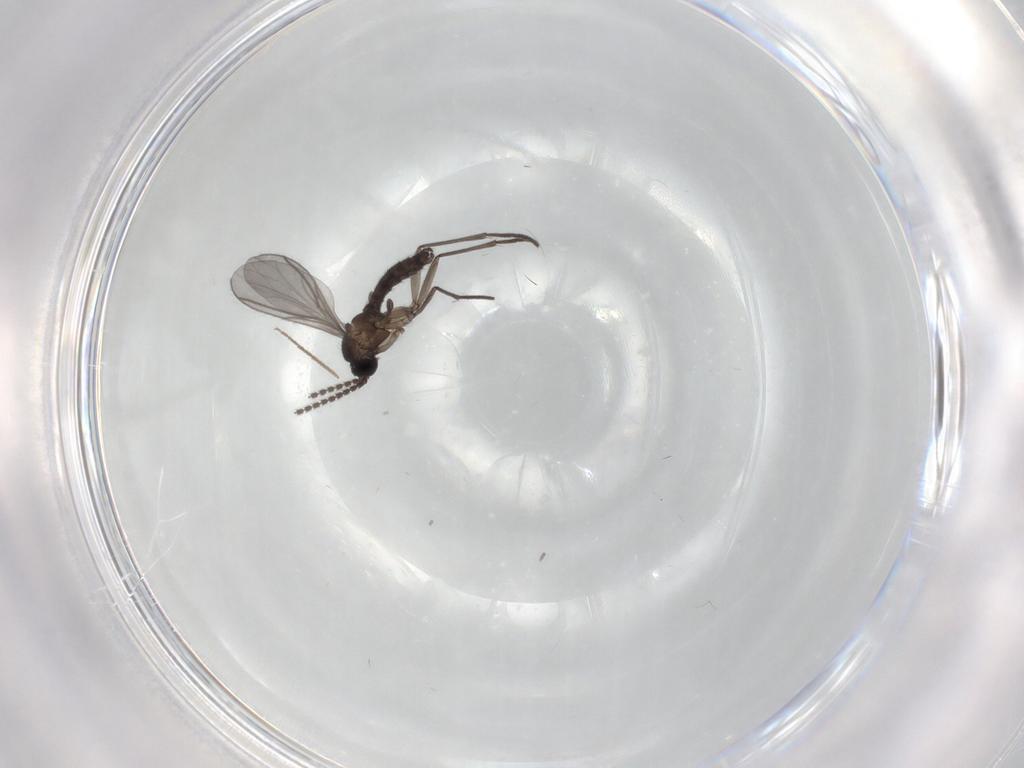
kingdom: Animalia
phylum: Arthropoda
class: Insecta
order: Diptera
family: Chironomidae
